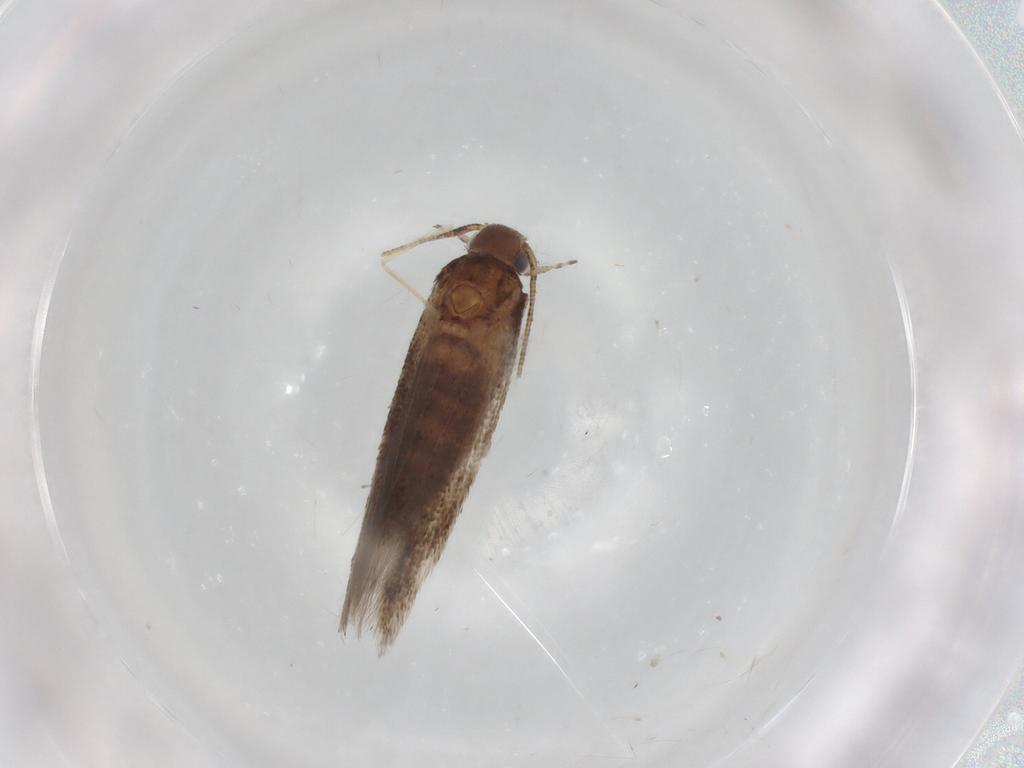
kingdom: Animalia
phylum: Arthropoda
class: Insecta
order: Lepidoptera
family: Gelechiidae
